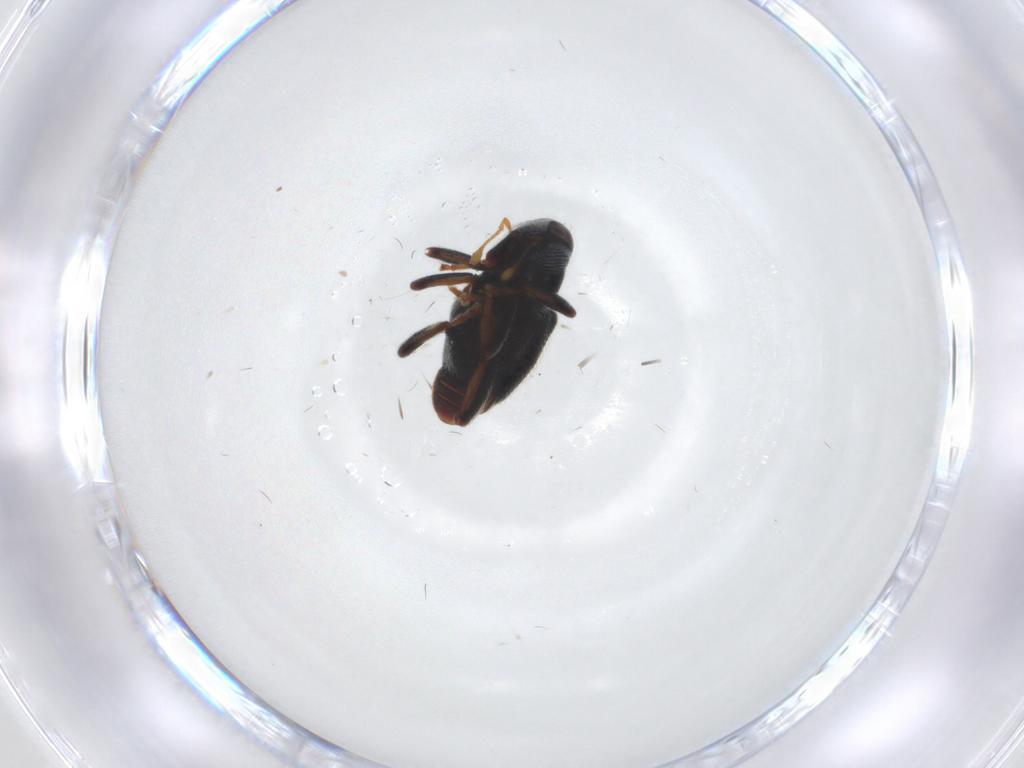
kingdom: Animalia
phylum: Arthropoda
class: Insecta
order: Coleoptera
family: Curculionidae
